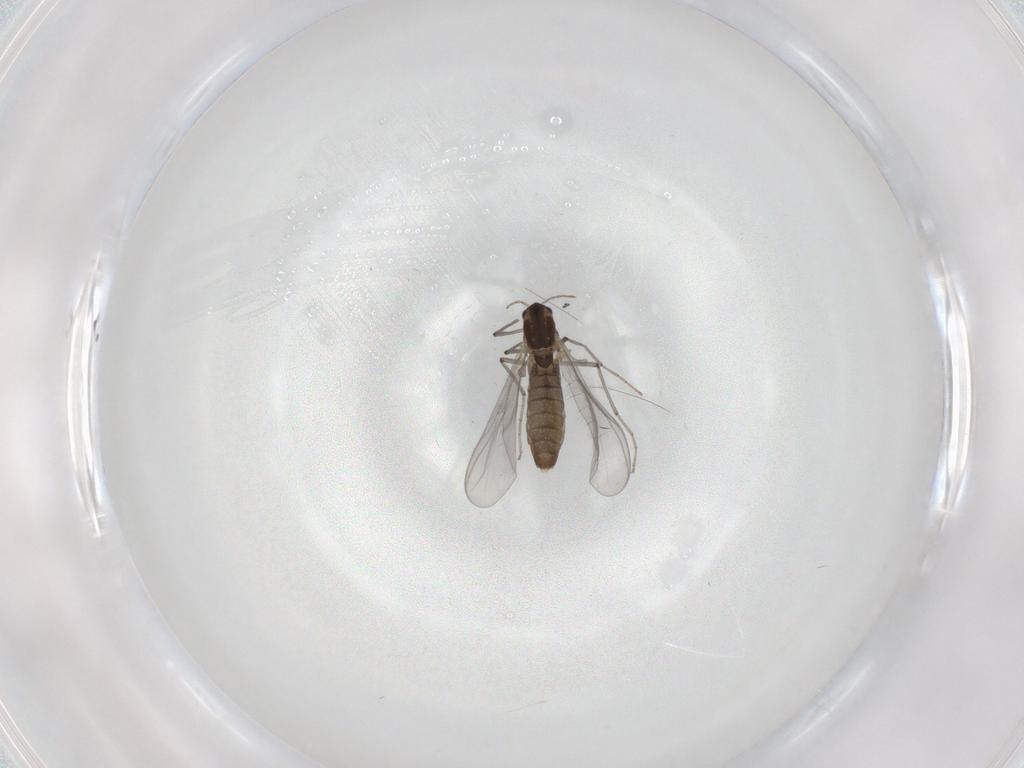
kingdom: Animalia
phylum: Arthropoda
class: Insecta
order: Diptera
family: Chironomidae
